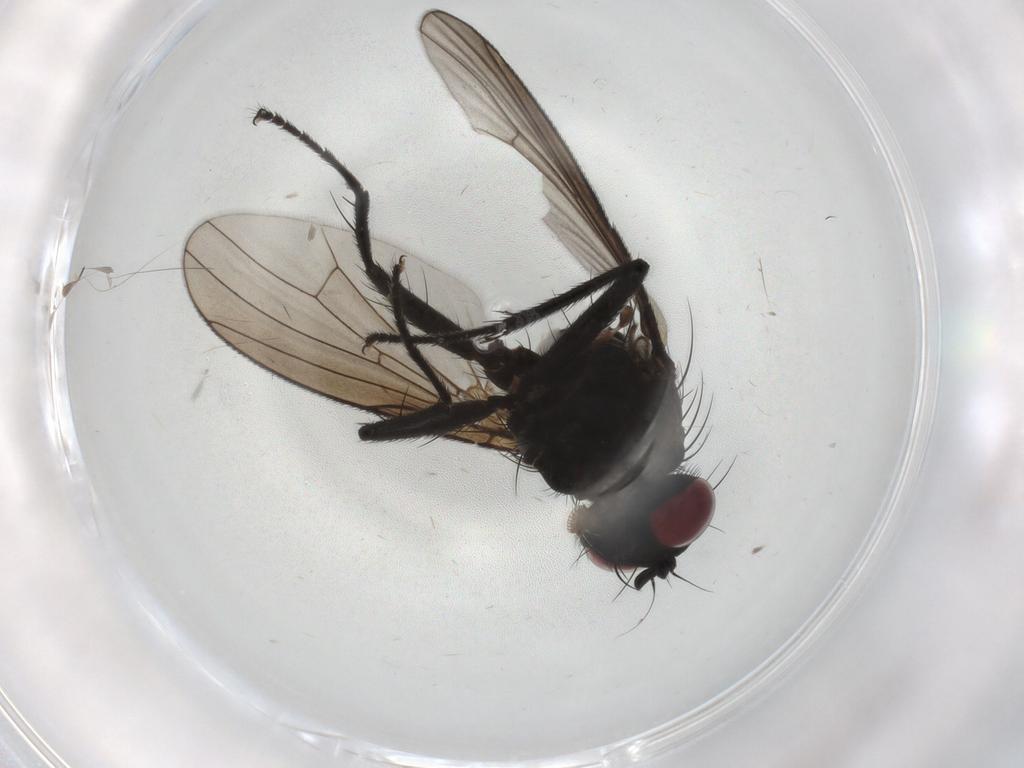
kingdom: Animalia
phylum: Arthropoda
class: Insecta
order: Diptera
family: Muscidae
